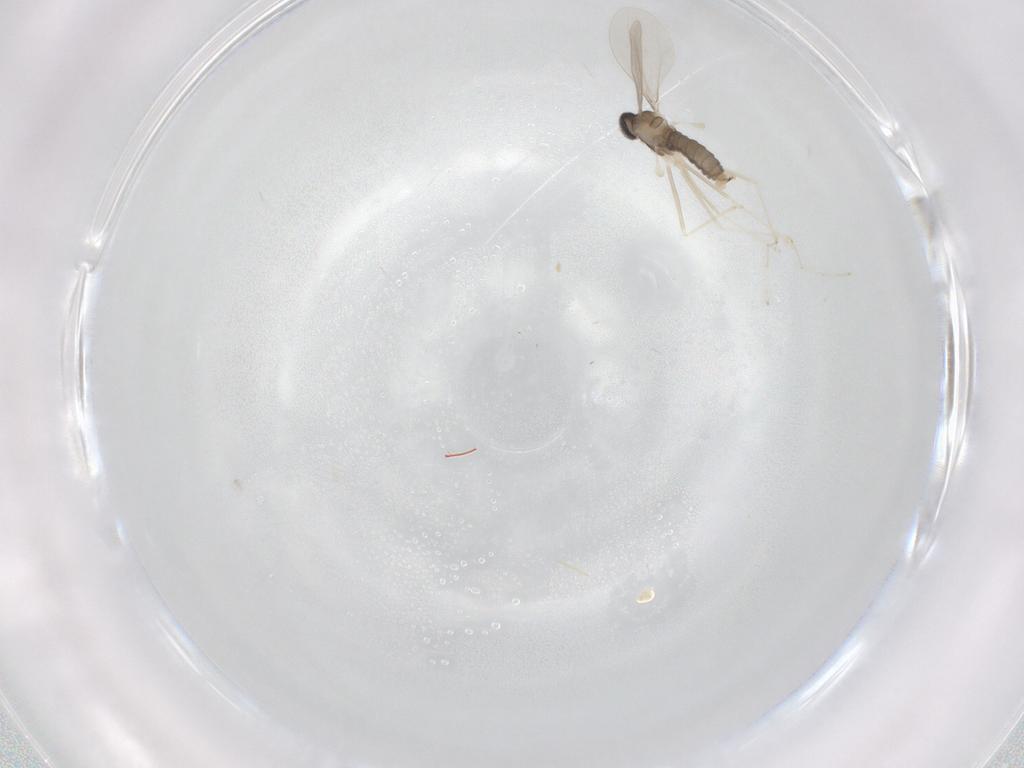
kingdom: Animalia
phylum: Arthropoda
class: Insecta
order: Diptera
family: Cecidomyiidae
